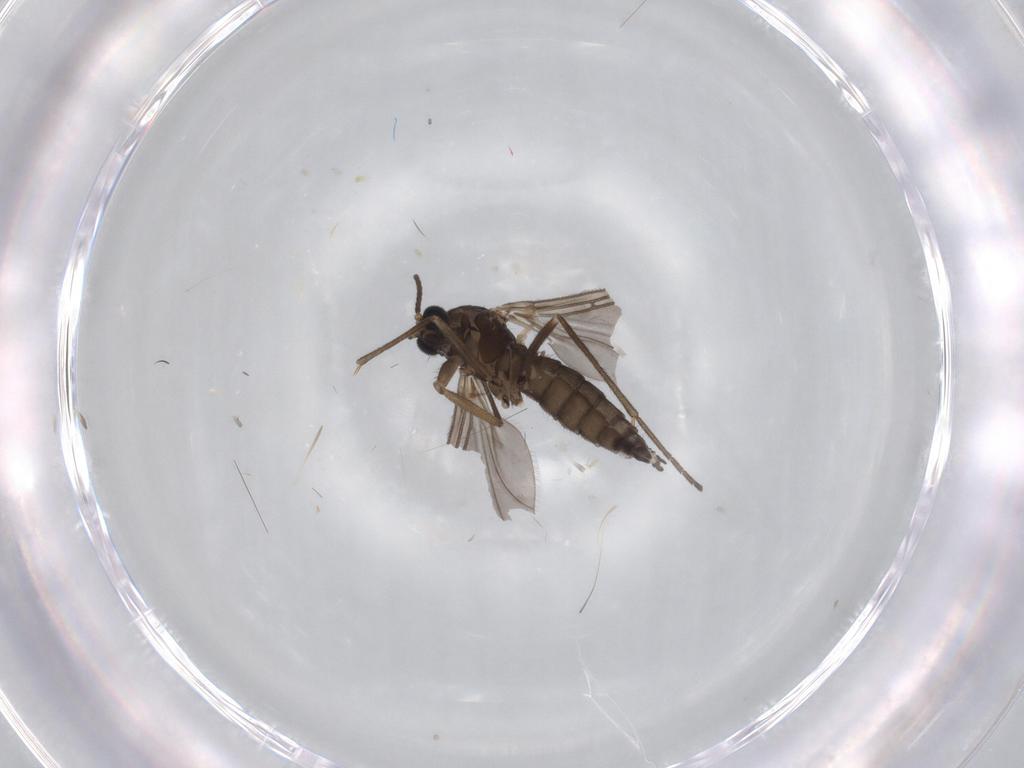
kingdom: Animalia
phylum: Arthropoda
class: Insecta
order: Diptera
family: Sciaridae
